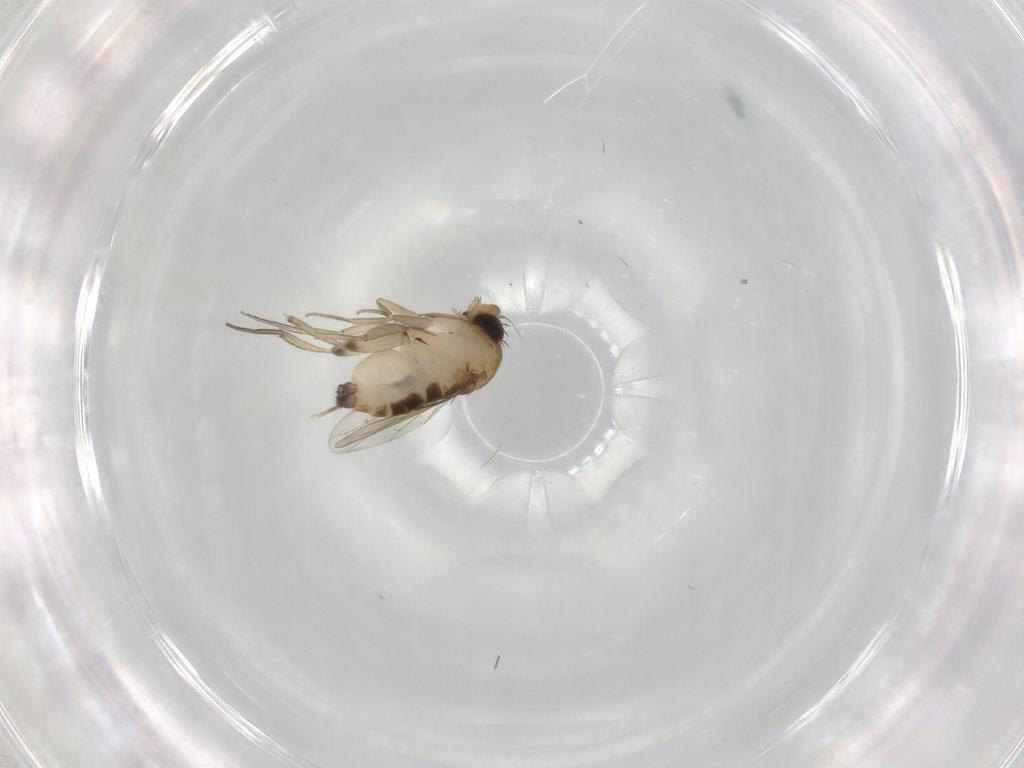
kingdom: Animalia
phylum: Arthropoda
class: Insecta
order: Diptera
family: Phoridae
